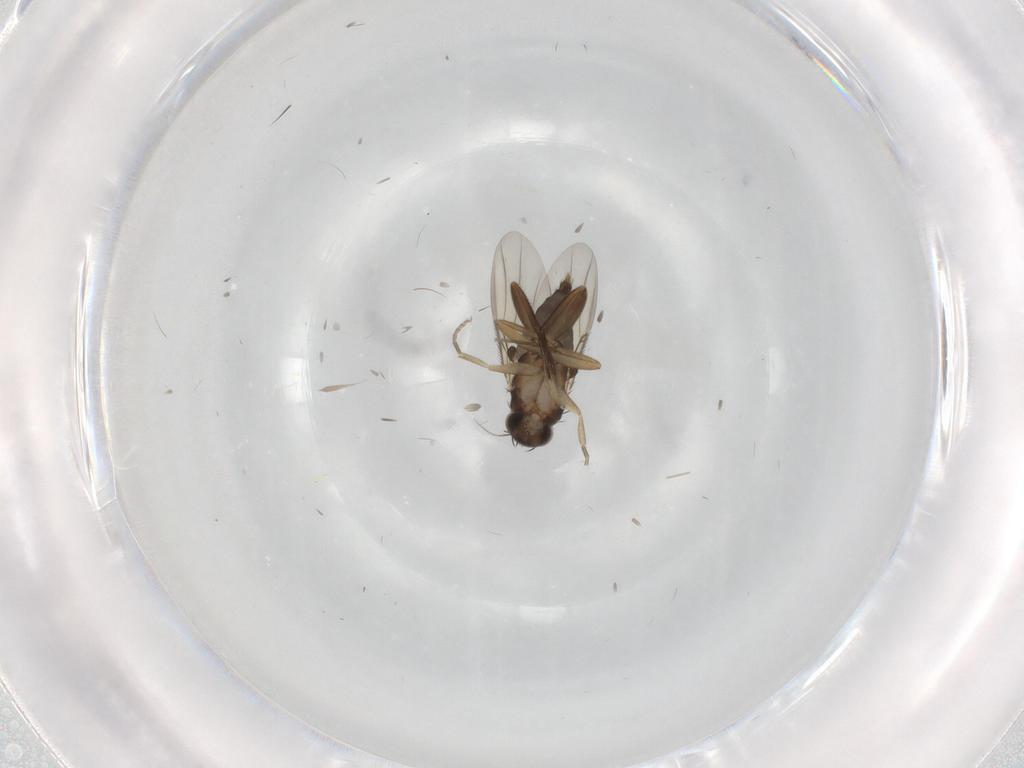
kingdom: Animalia
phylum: Arthropoda
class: Insecta
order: Diptera
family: Phoridae
